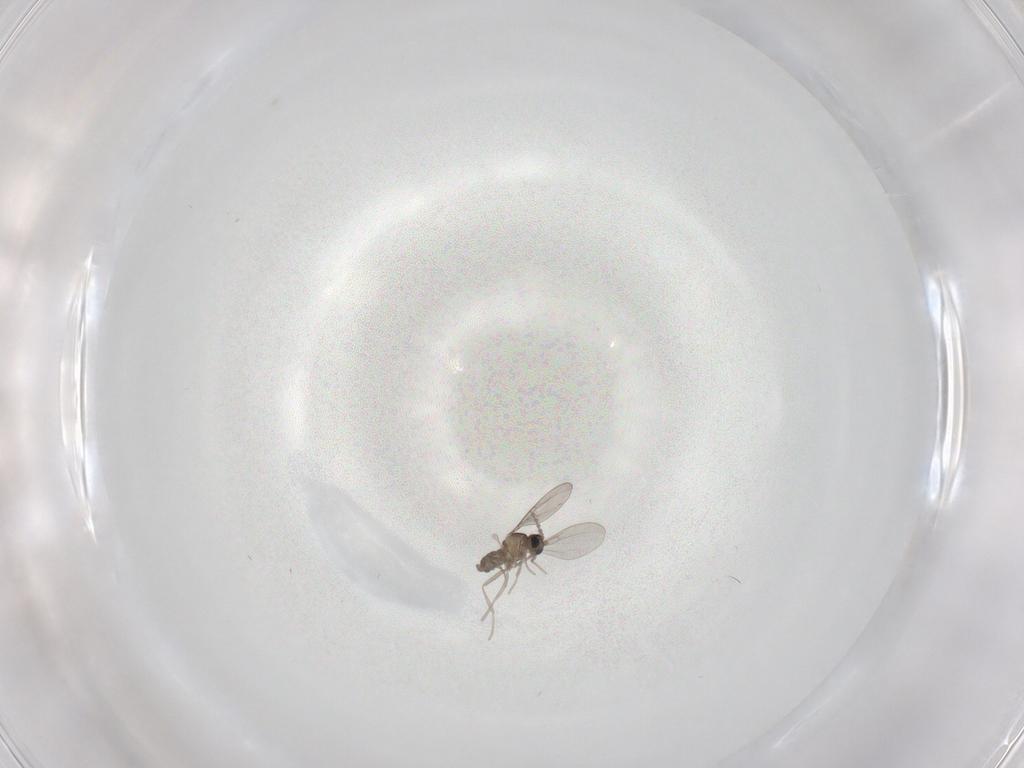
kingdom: Animalia
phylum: Arthropoda
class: Insecta
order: Diptera
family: Cecidomyiidae
